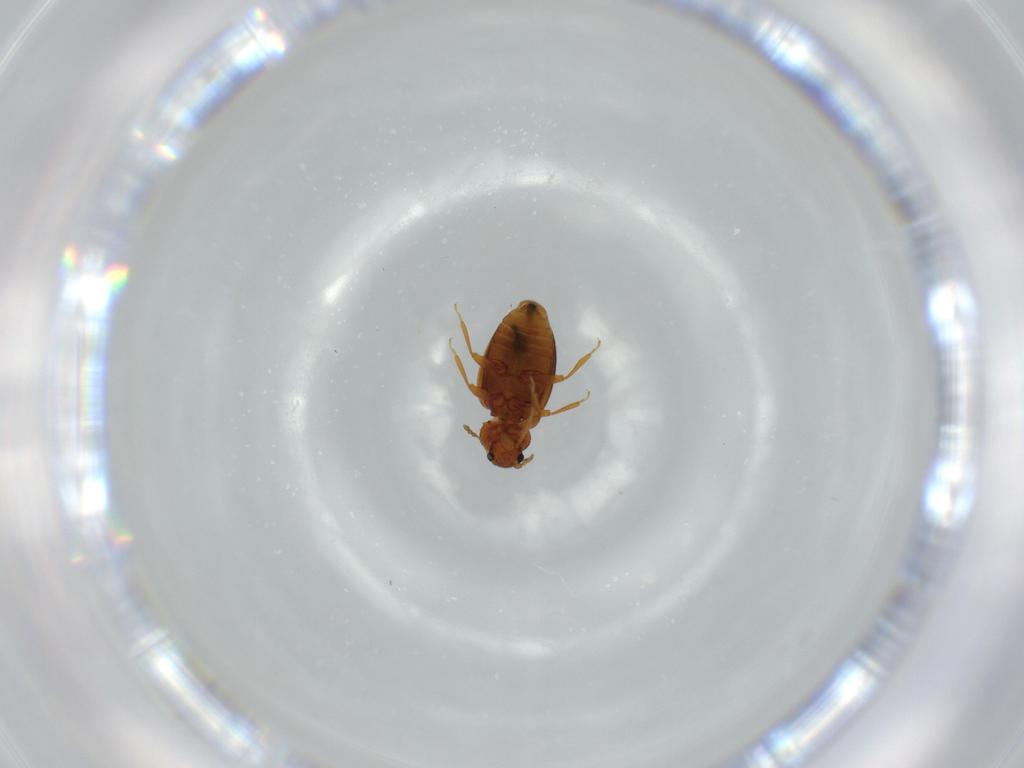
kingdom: Animalia
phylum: Arthropoda
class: Insecta
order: Coleoptera
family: Latridiidae
